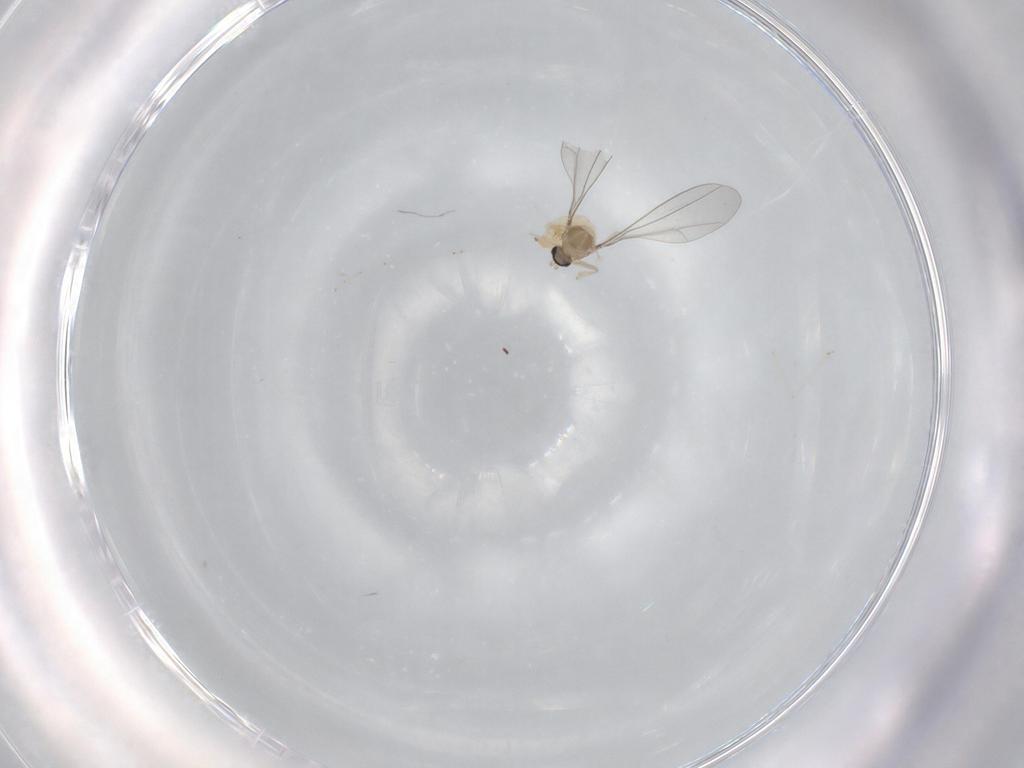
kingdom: Animalia
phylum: Arthropoda
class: Insecta
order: Diptera
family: Cecidomyiidae
